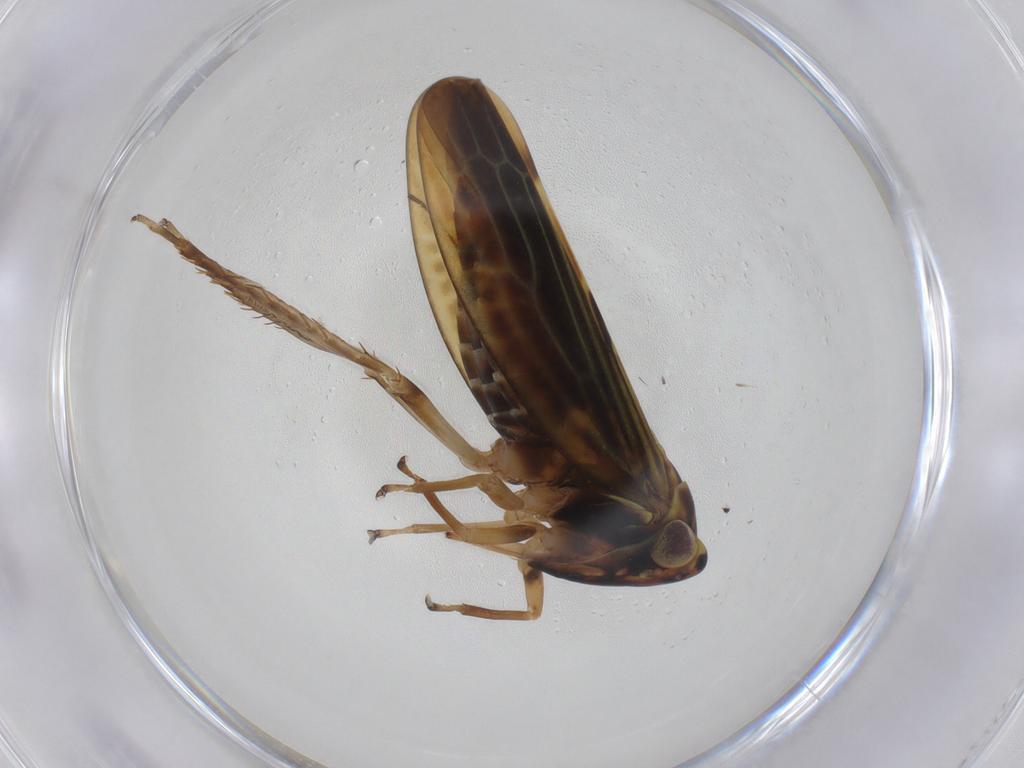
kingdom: Animalia
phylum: Arthropoda
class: Insecta
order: Hemiptera
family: Cicadellidae
